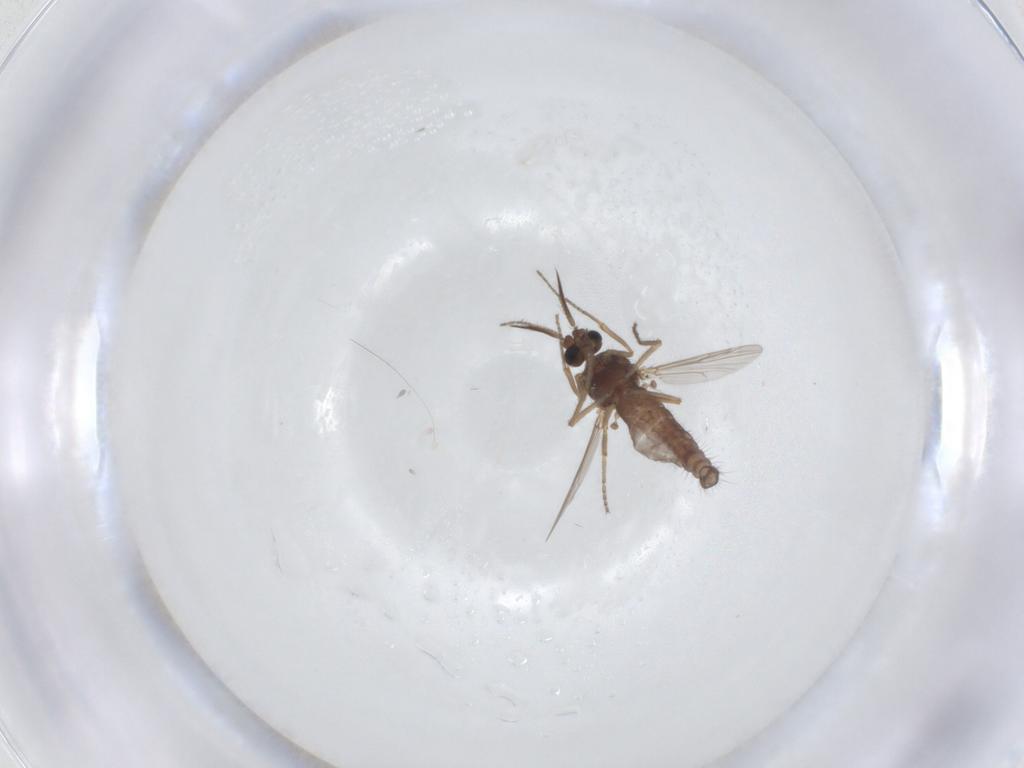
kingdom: Animalia
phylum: Arthropoda
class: Insecta
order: Diptera
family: Ceratopogonidae
